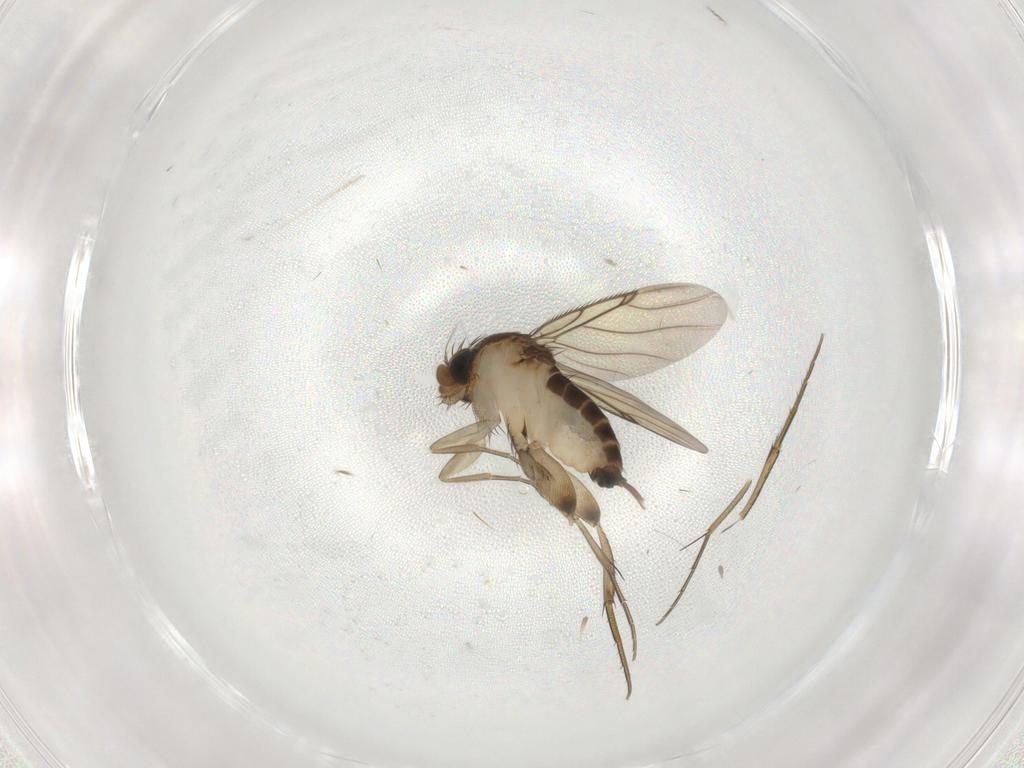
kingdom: Animalia
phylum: Arthropoda
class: Insecta
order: Diptera
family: Phoridae
